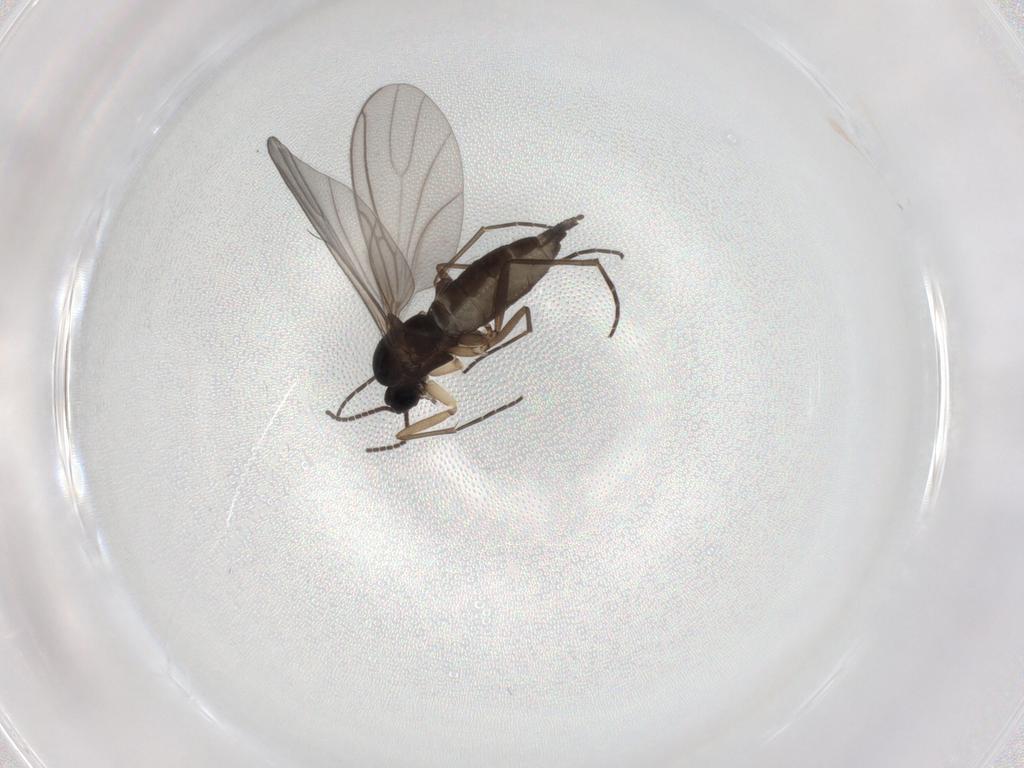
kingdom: Animalia
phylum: Arthropoda
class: Insecta
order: Diptera
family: Sciaridae
